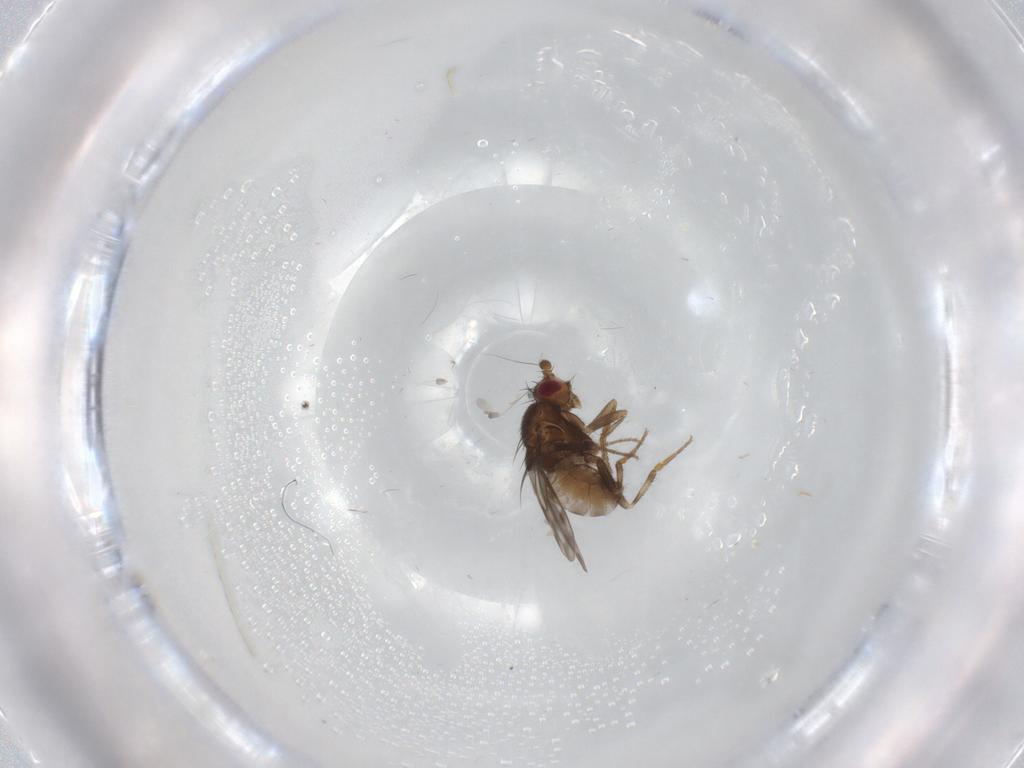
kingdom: Animalia
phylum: Arthropoda
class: Insecta
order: Diptera
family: Sphaeroceridae
